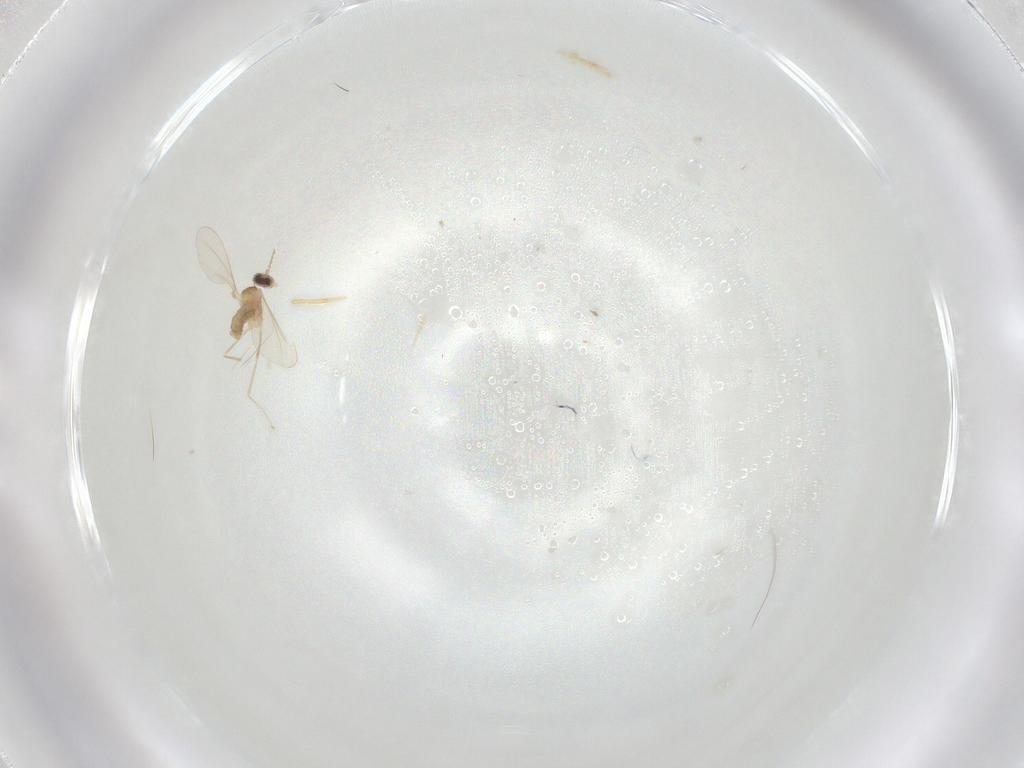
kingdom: Animalia
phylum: Arthropoda
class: Insecta
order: Diptera
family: Cecidomyiidae
